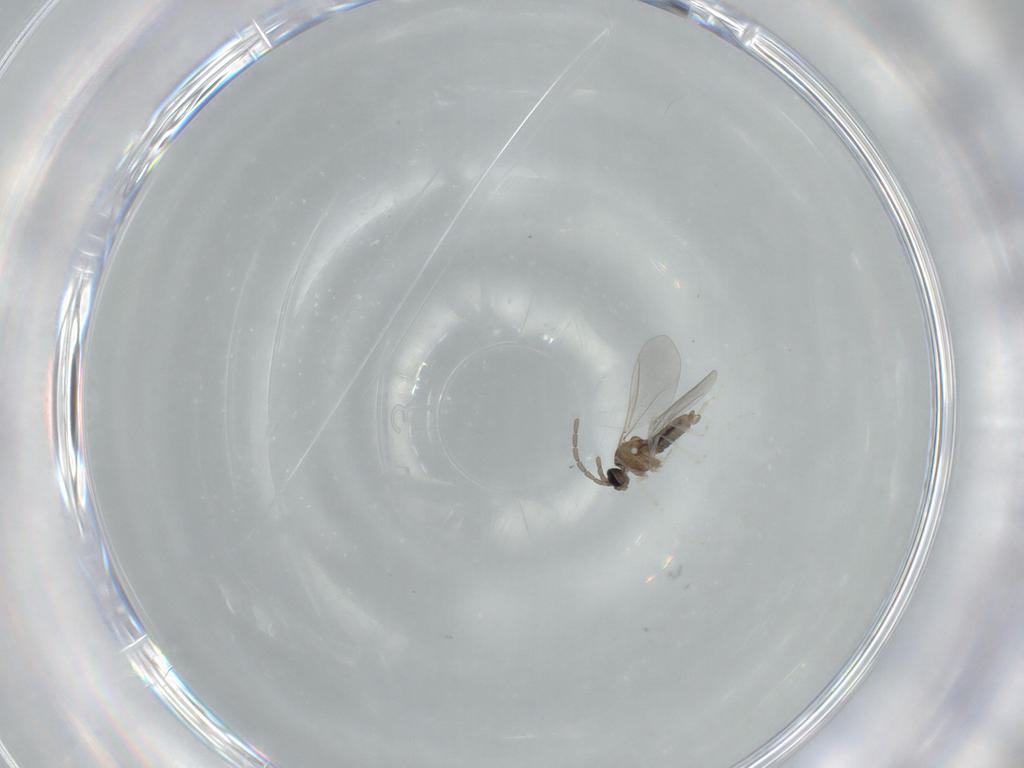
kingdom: Animalia
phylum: Arthropoda
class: Insecta
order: Diptera
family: Cecidomyiidae
